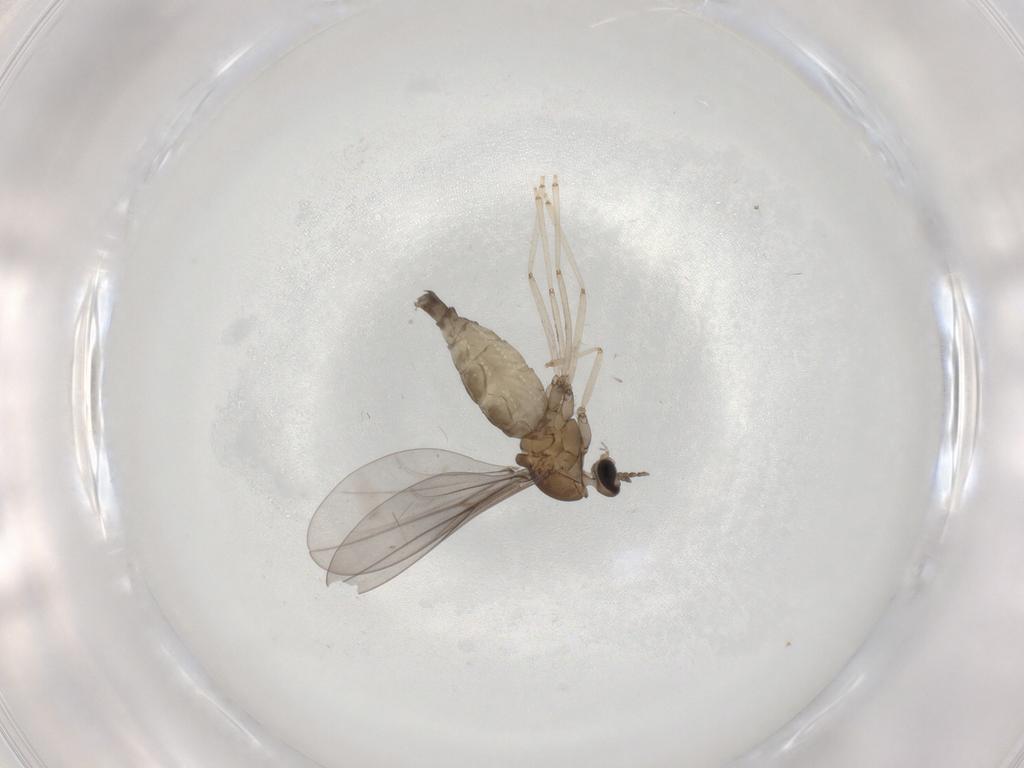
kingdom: Animalia
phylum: Arthropoda
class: Insecta
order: Diptera
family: Cecidomyiidae
